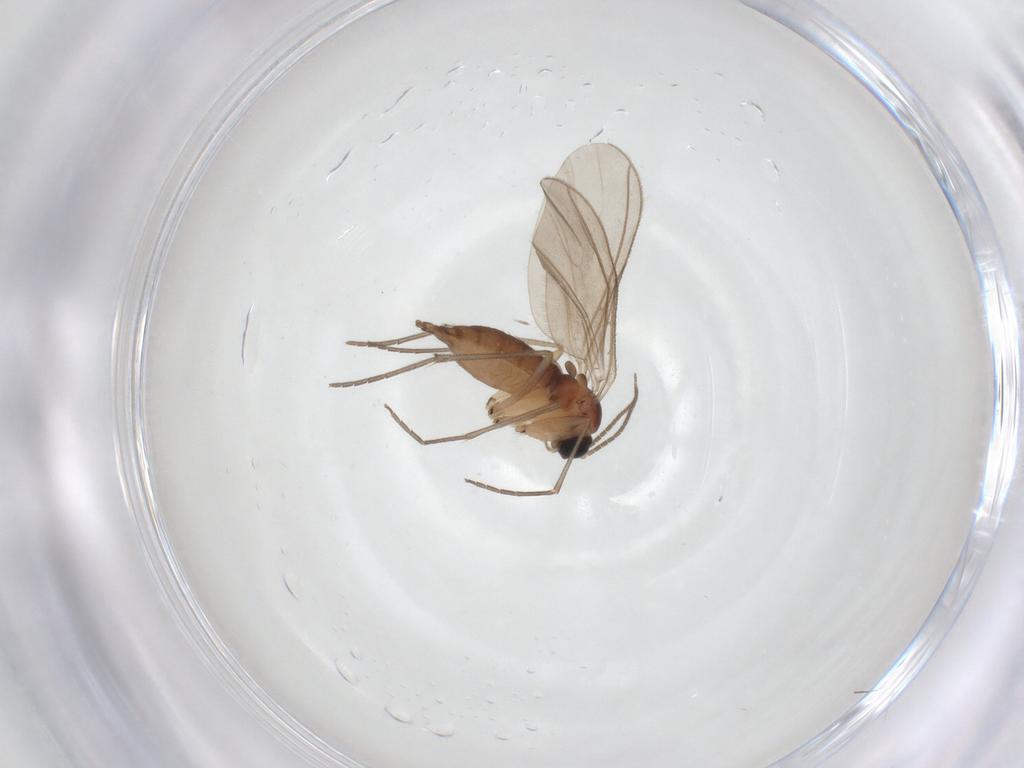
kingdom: Animalia
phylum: Arthropoda
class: Insecta
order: Diptera
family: Sciaridae
